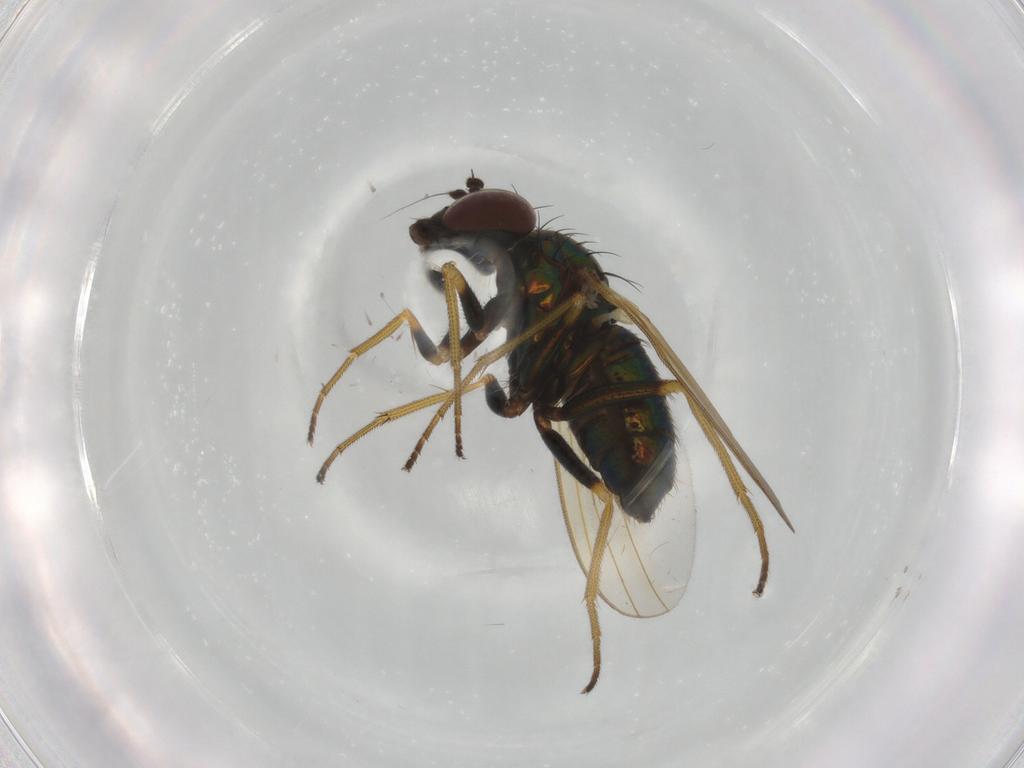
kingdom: Animalia
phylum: Arthropoda
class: Insecta
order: Diptera
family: Dolichopodidae
